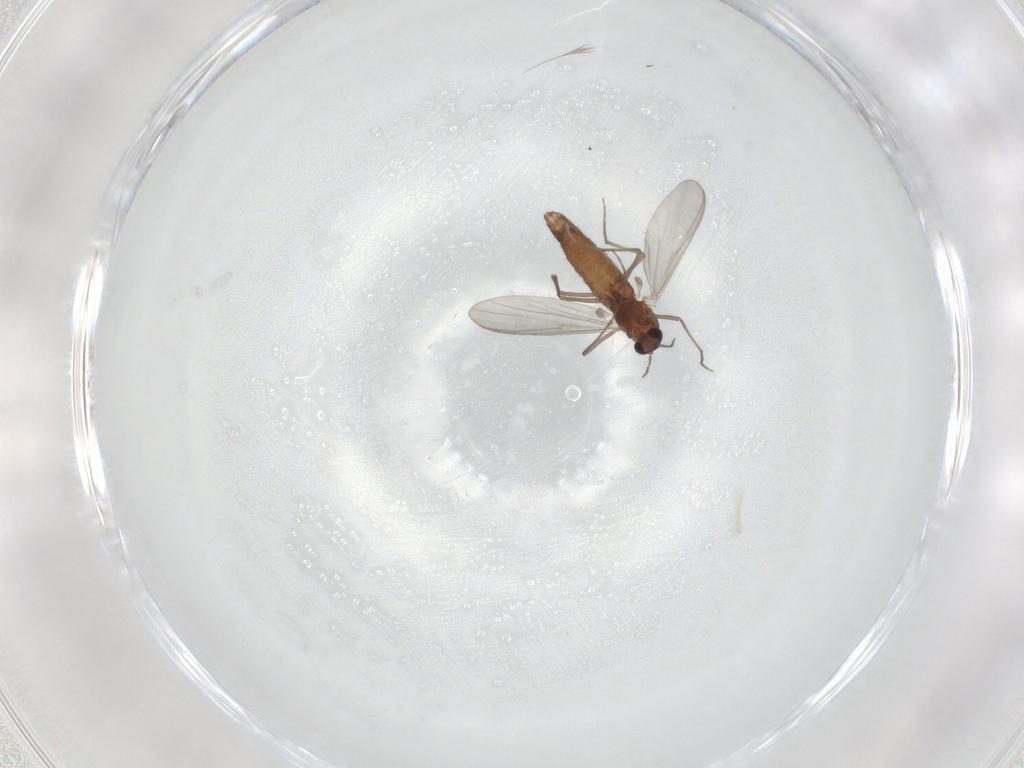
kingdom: Animalia
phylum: Arthropoda
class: Insecta
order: Diptera
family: Chironomidae
